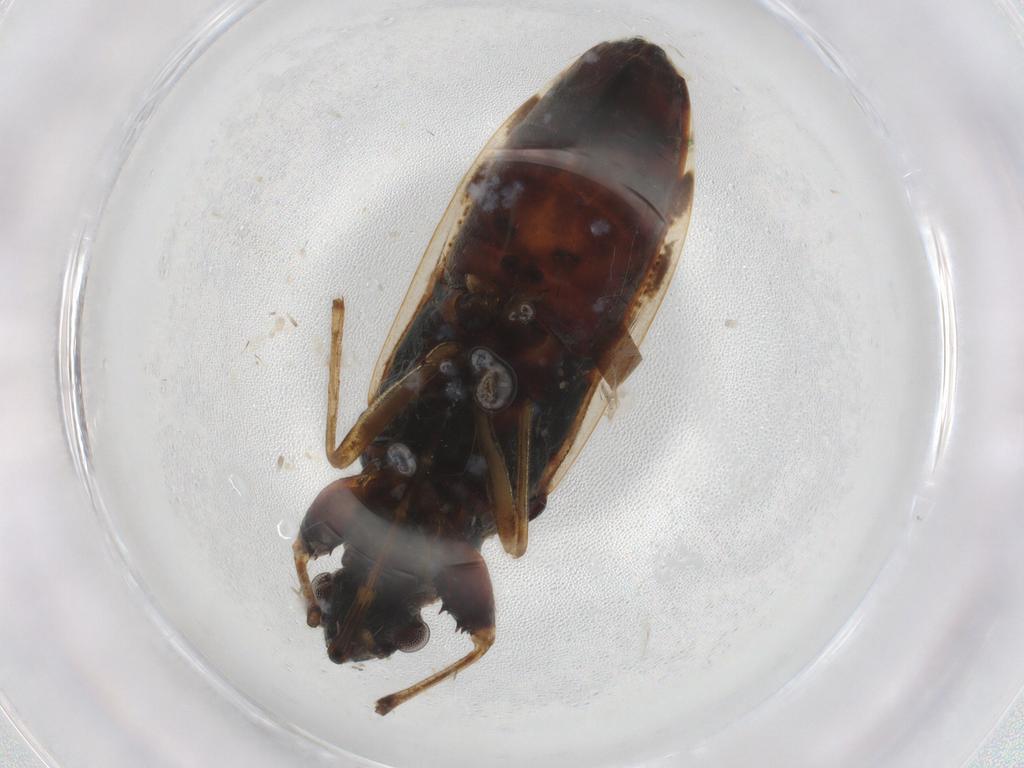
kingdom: Animalia
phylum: Arthropoda
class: Insecta
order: Hemiptera
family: Rhyparochromidae
